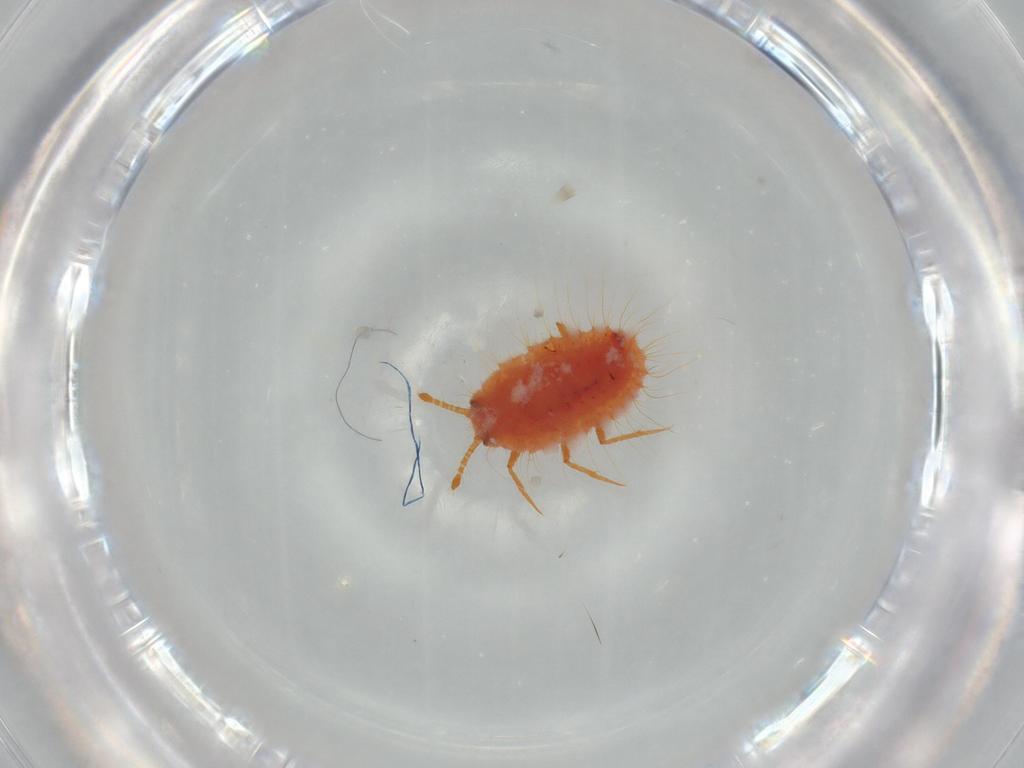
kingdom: Animalia
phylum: Arthropoda
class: Insecta
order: Hemiptera
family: Coccoidea_incertae_sedis
